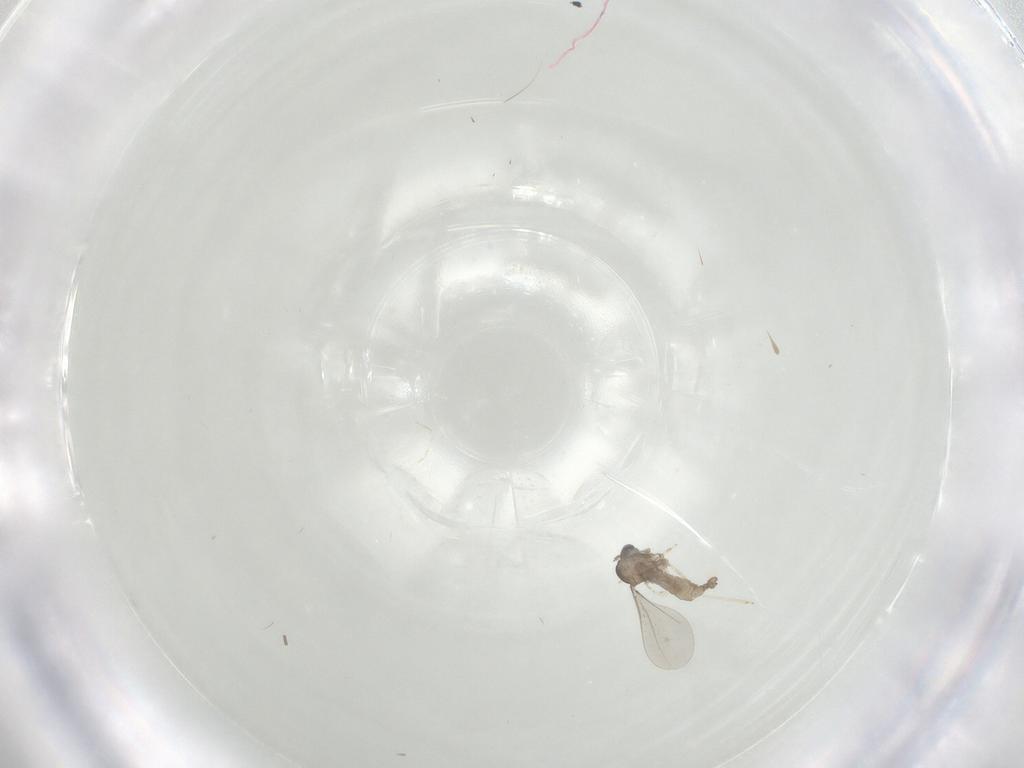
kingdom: Animalia
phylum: Arthropoda
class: Insecta
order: Diptera
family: Cecidomyiidae
